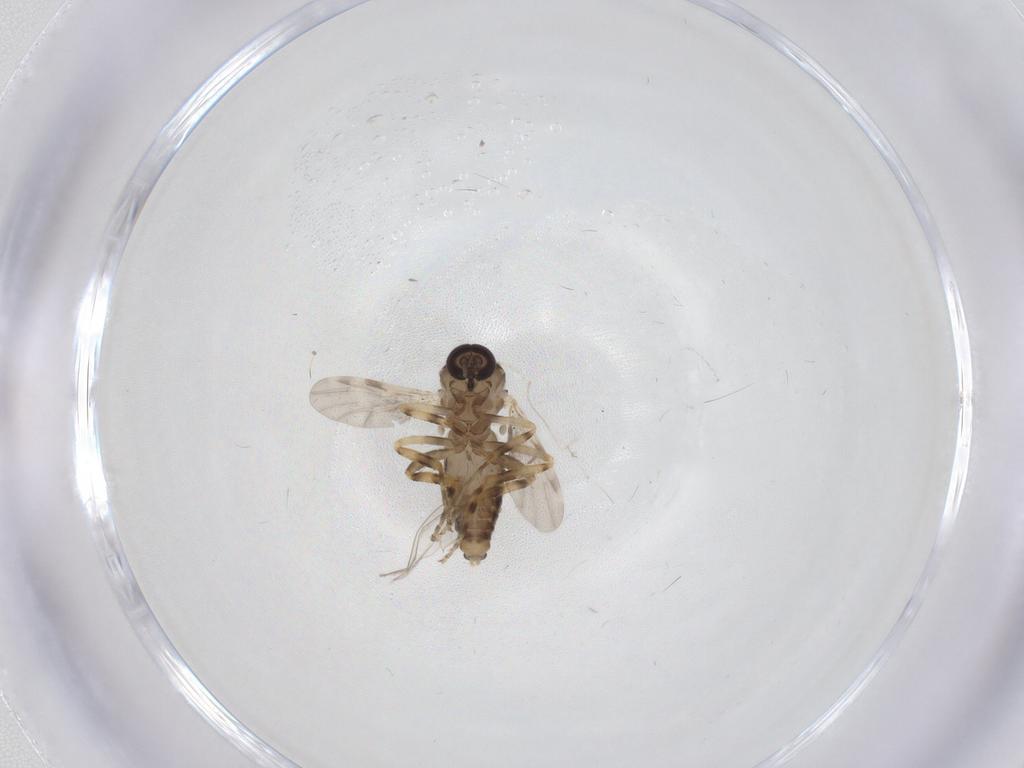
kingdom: Animalia
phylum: Arthropoda
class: Insecta
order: Diptera
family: Ceratopogonidae
